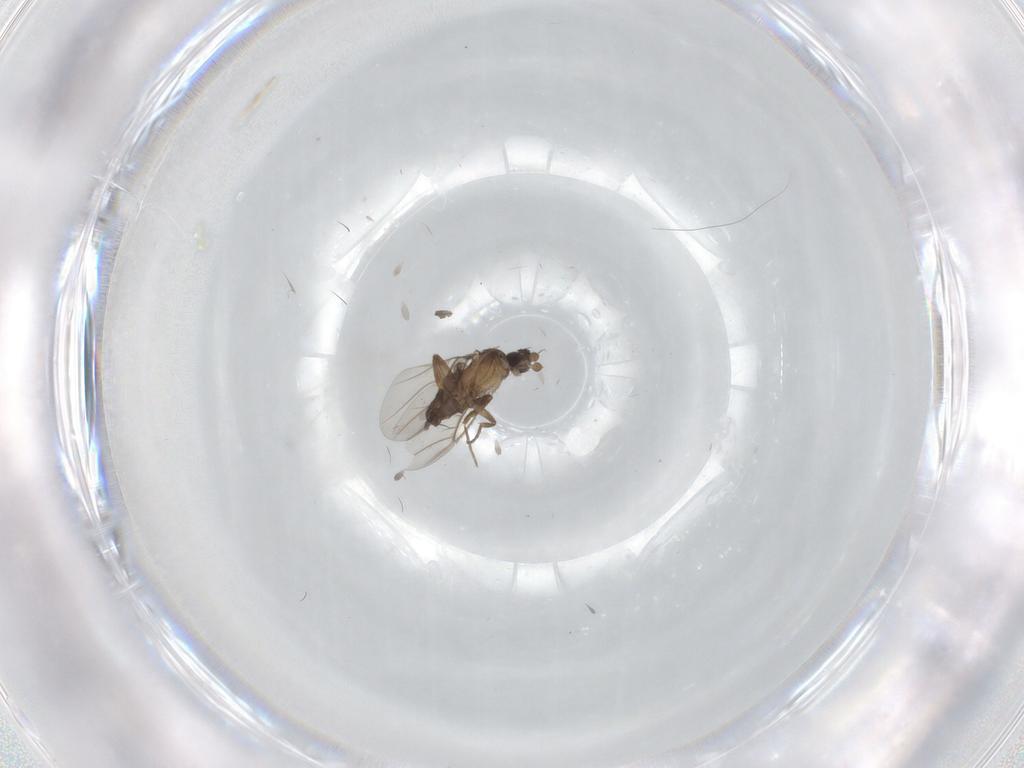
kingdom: Animalia
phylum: Arthropoda
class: Insecta
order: Diptera
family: Phoridae
